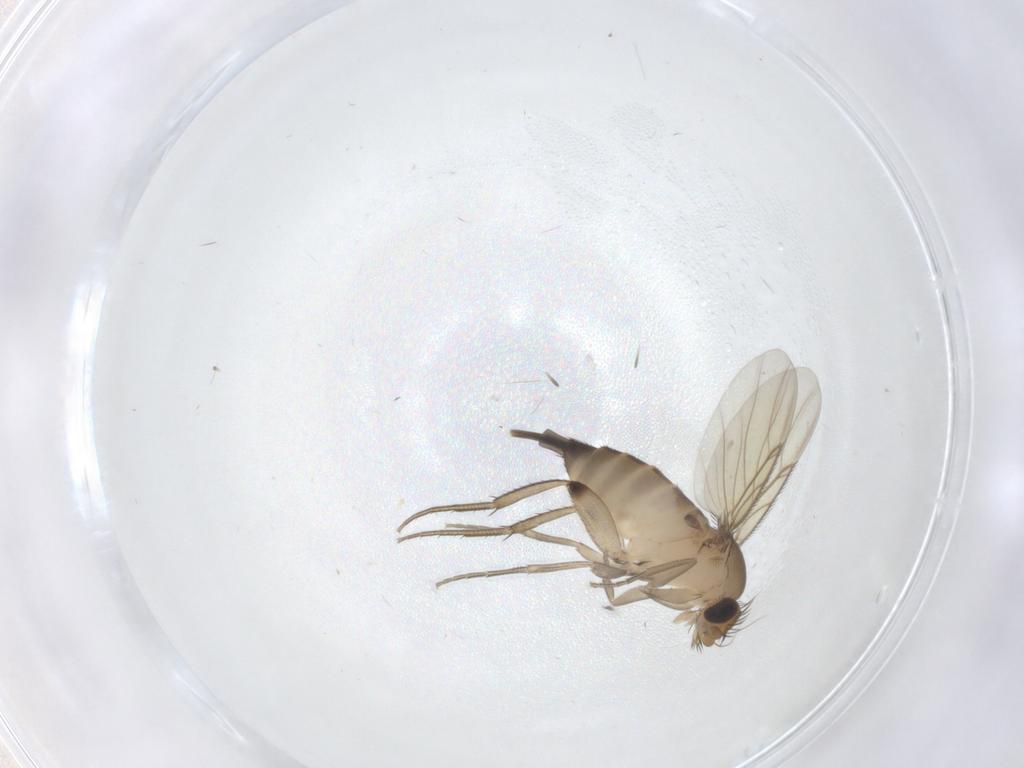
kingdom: Animalia
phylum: Arthropoda
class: Insecta
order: Diptera
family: Phoridae
